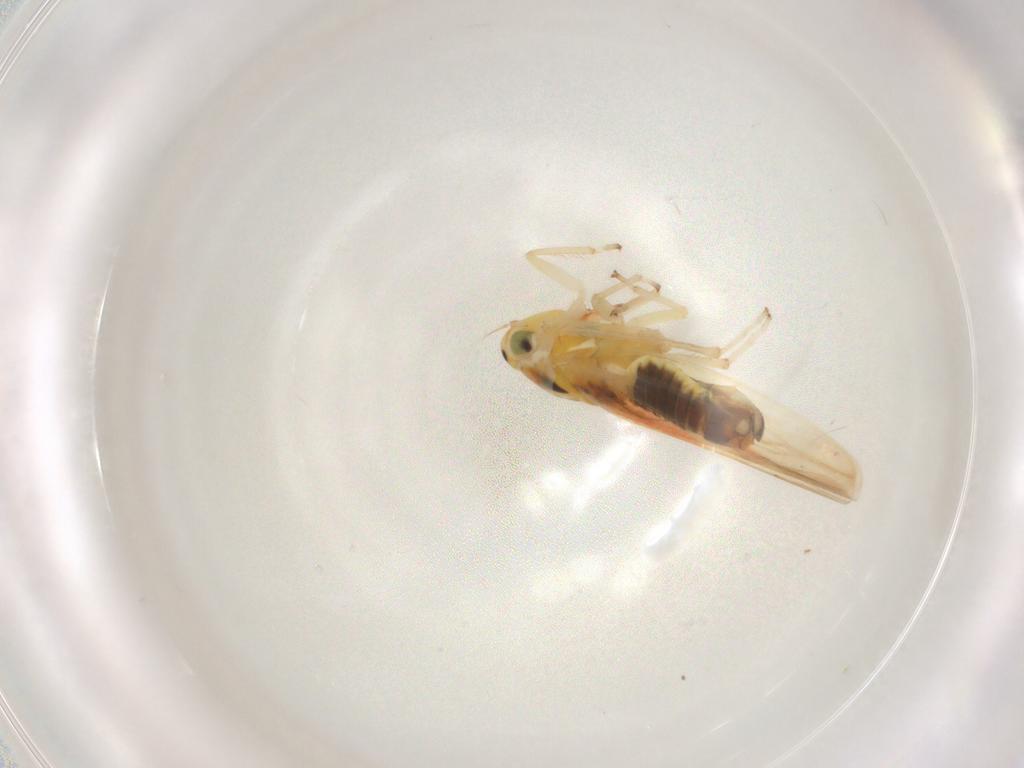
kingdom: Animalia
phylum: Arthropoda
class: Insecta
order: Hemiptera
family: Cicadellidae
